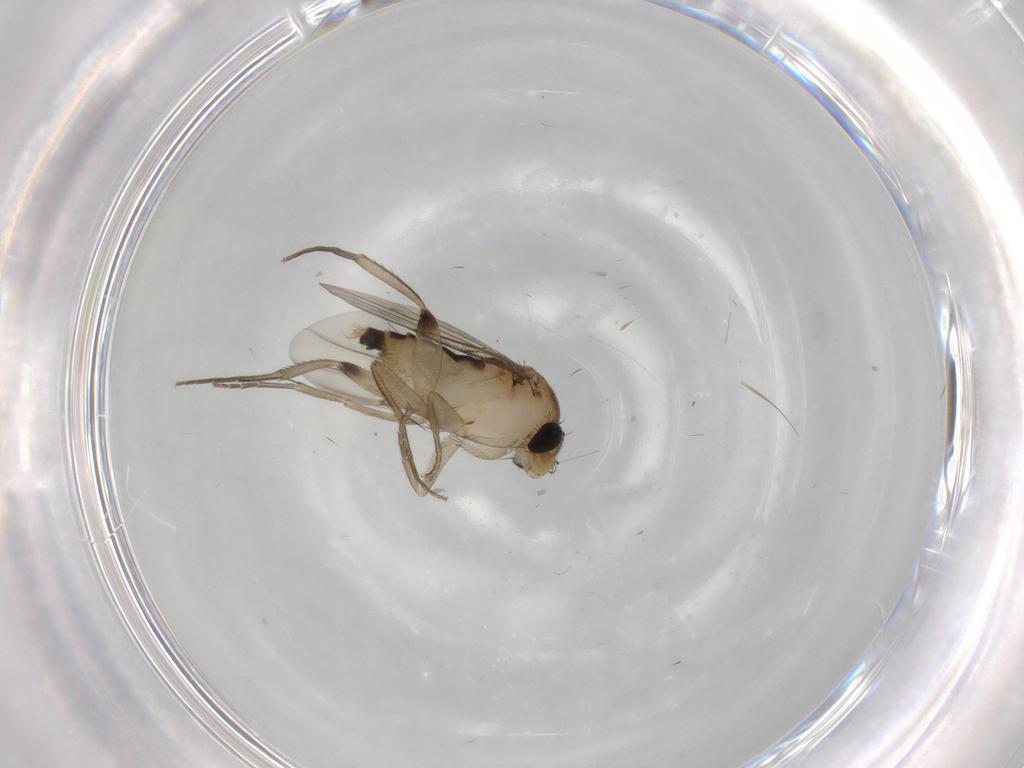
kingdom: Animalia
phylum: Arthropoda
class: Insecta
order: Diptera
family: Phoridae
